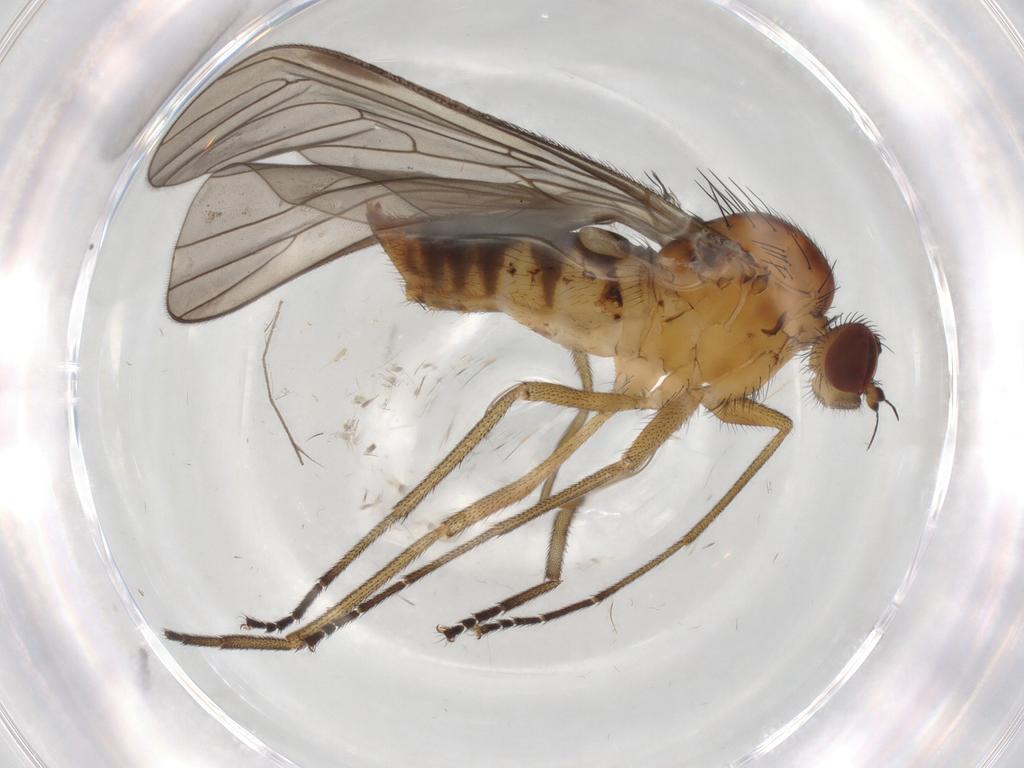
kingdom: Animalia
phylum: Arthropoda
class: Insecta
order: Diptera
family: Brachystomatidae
